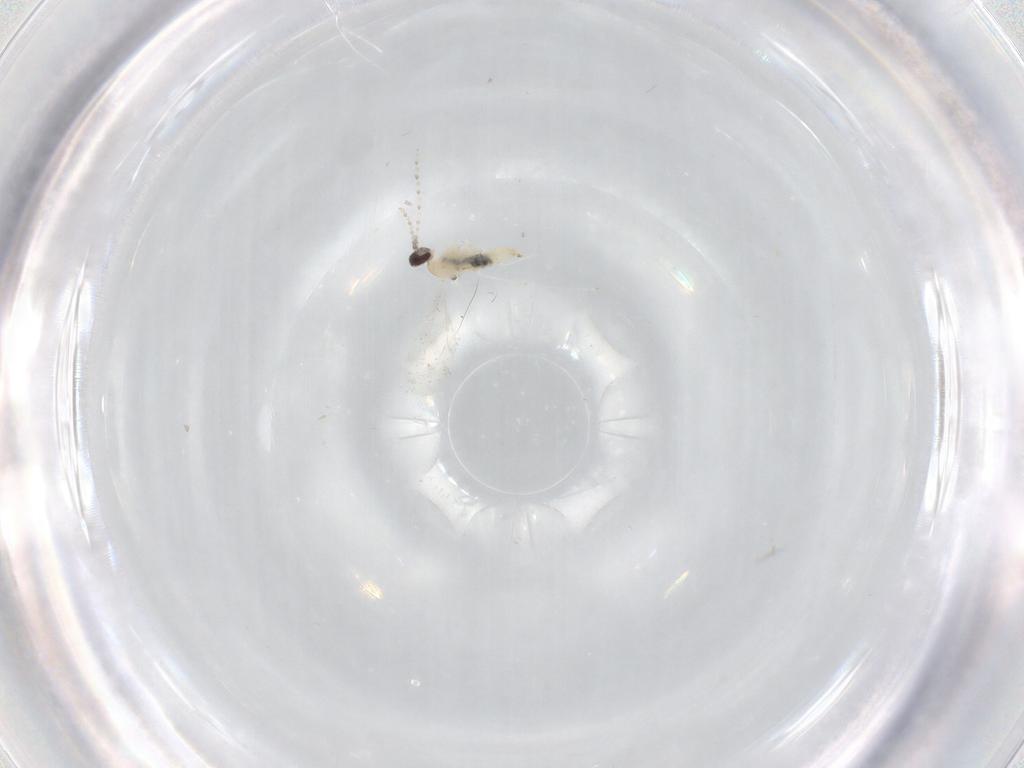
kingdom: Animalia
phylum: Arthropoda
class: Insecta
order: Diptera
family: Cecidomyiidae
